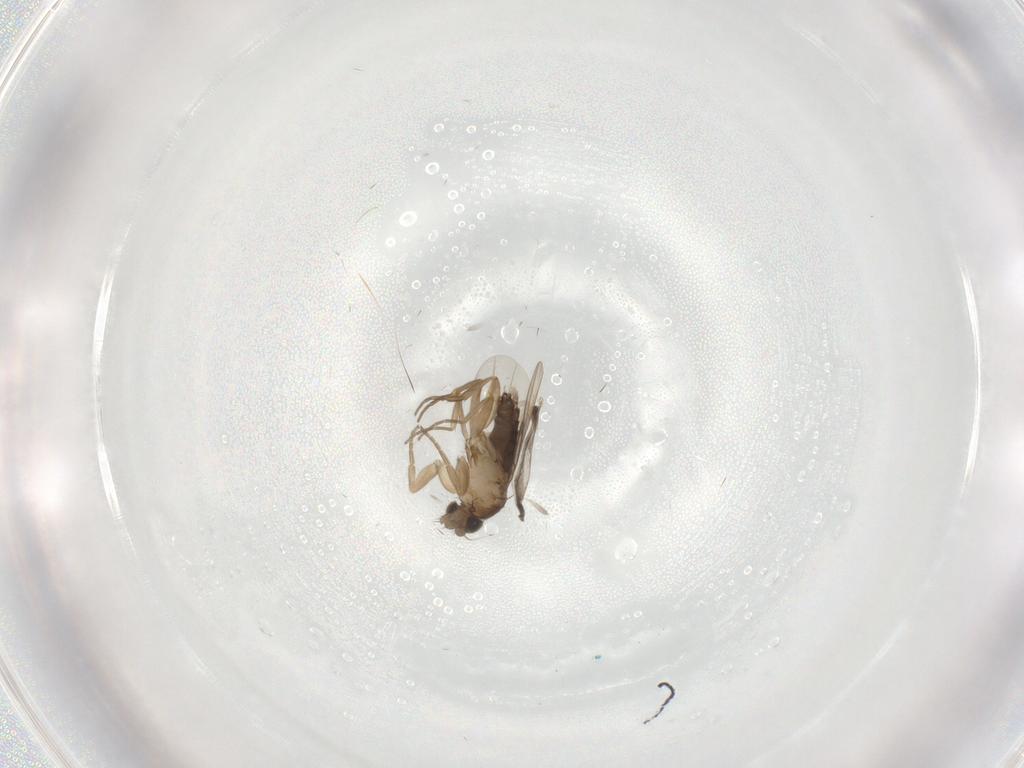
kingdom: Animalia
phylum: Arthropoda
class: Insecta
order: Diptera
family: Phoridae
